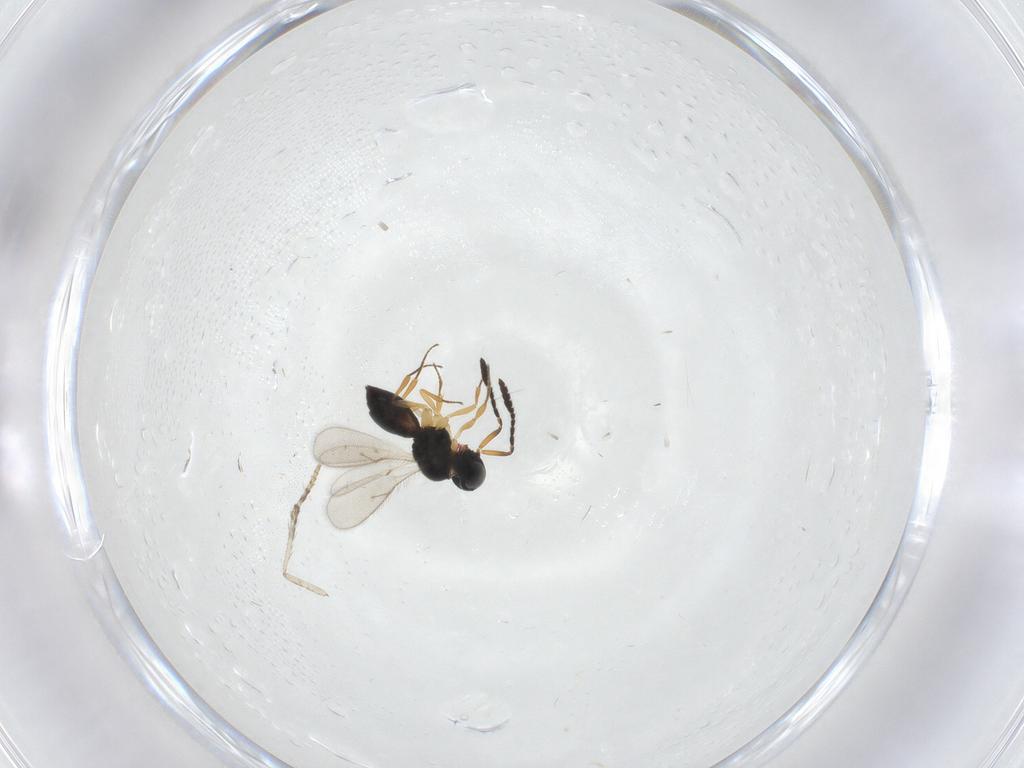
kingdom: Animalia
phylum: Arthropoda
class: Insecta
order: Hymenoptera
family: Scelionidae
